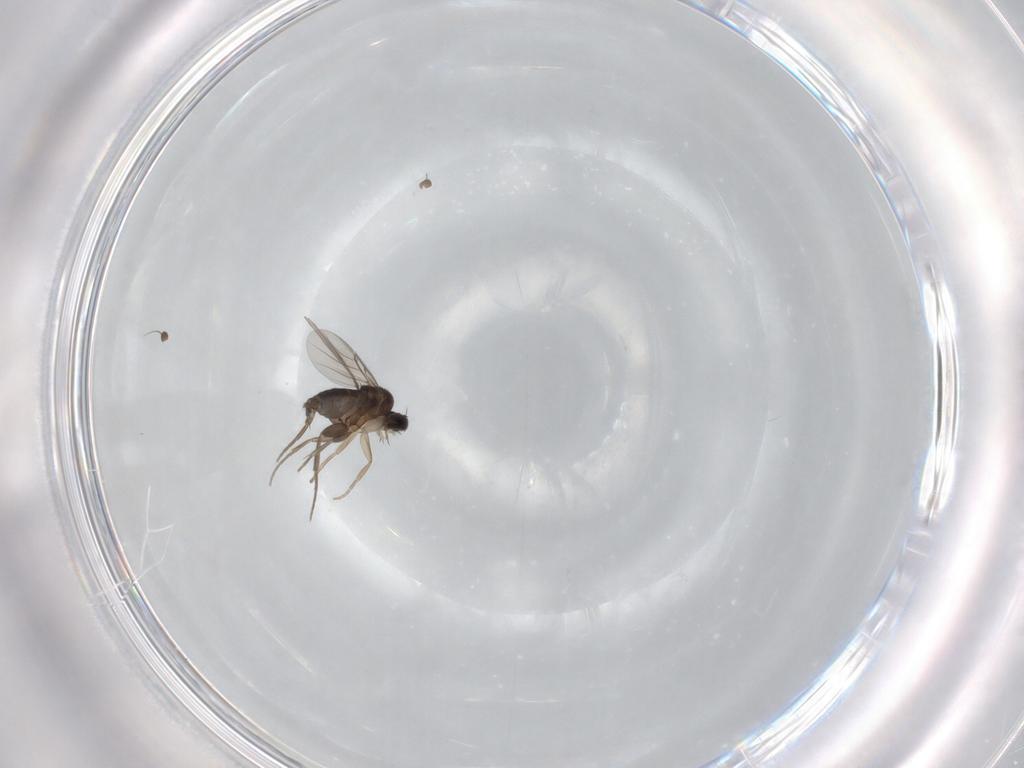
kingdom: Animalia
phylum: Arthropoda
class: Insecta
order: Diptera
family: Phoridae
